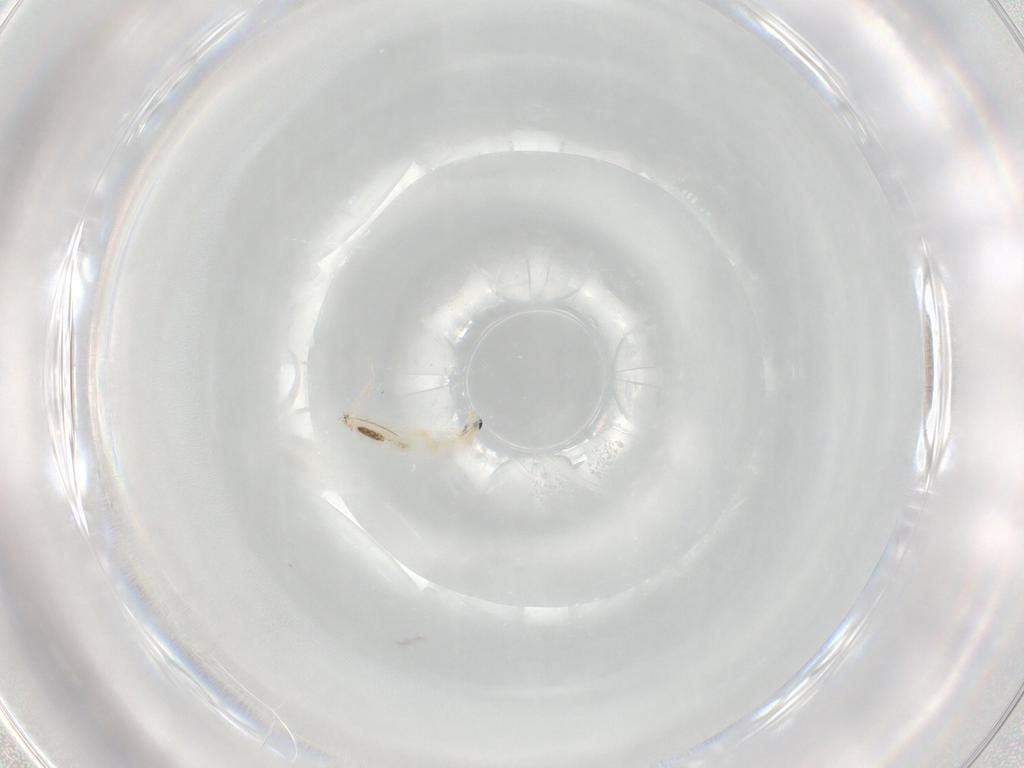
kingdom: Animalia
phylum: Arthropoda
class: Collembola
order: Entomobryomorpha
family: Entomobryidae
